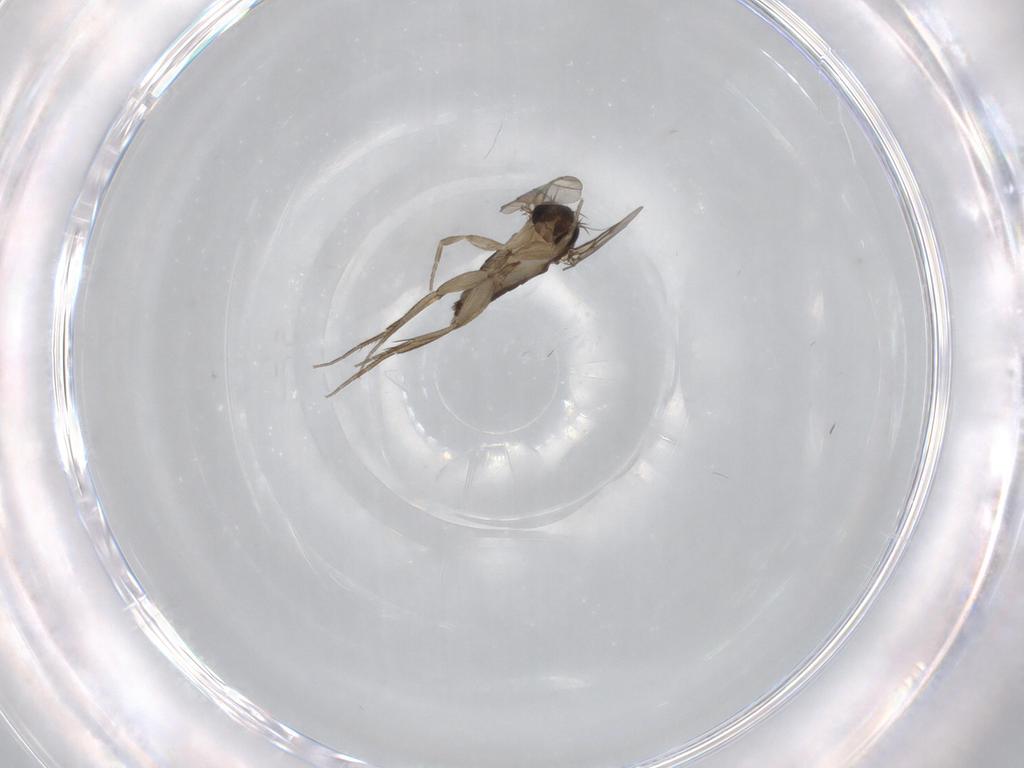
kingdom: Animalia
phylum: Arthropoda
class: Insecta
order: Diptera
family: Phoridae
